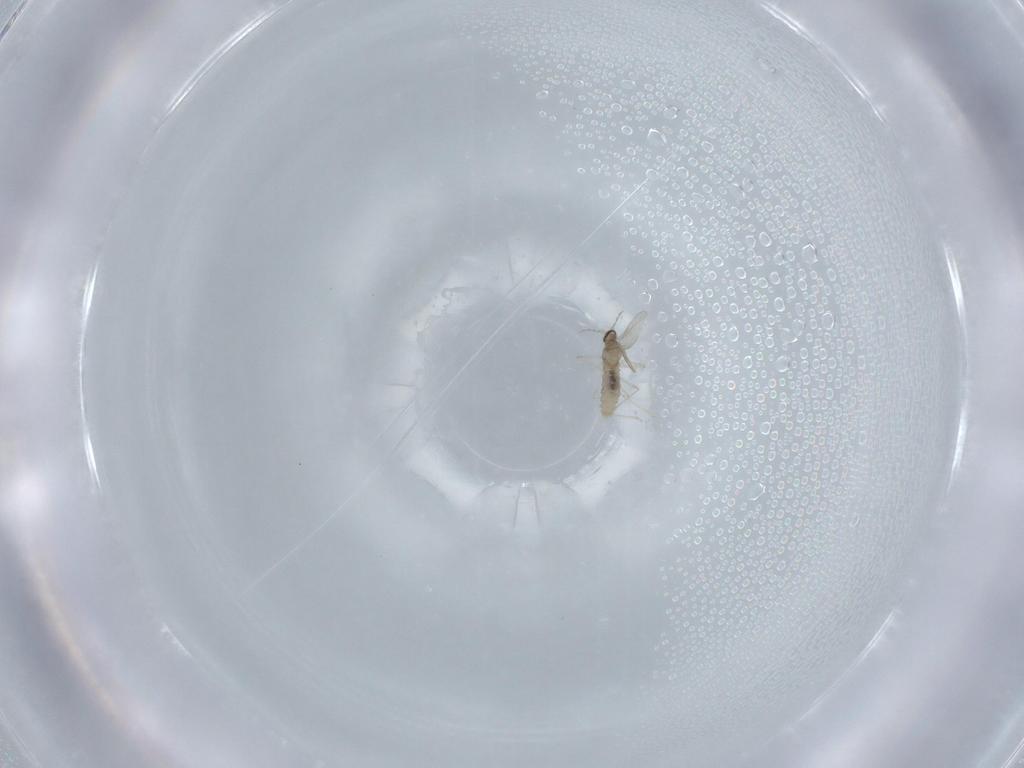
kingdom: Animalia
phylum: Arthropoda
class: Insecta
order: Diptera
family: Cecidomyiidae
